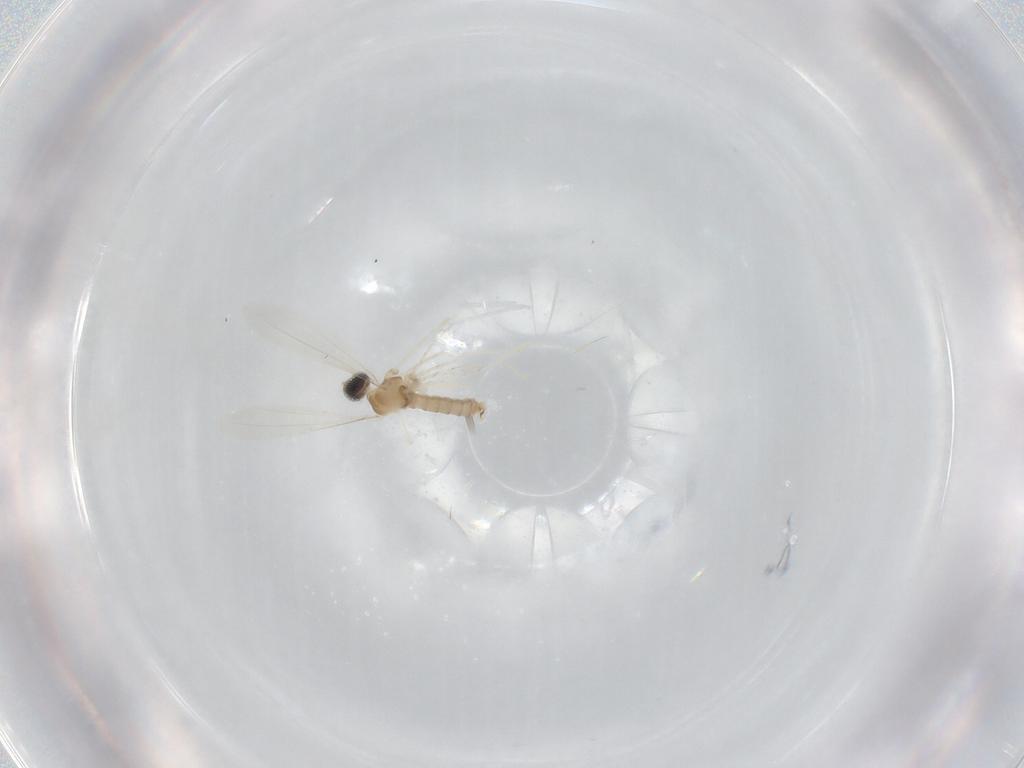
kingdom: Animalia
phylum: Arthropoda
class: Insecta
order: Diptera
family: Cecidomyiidae
